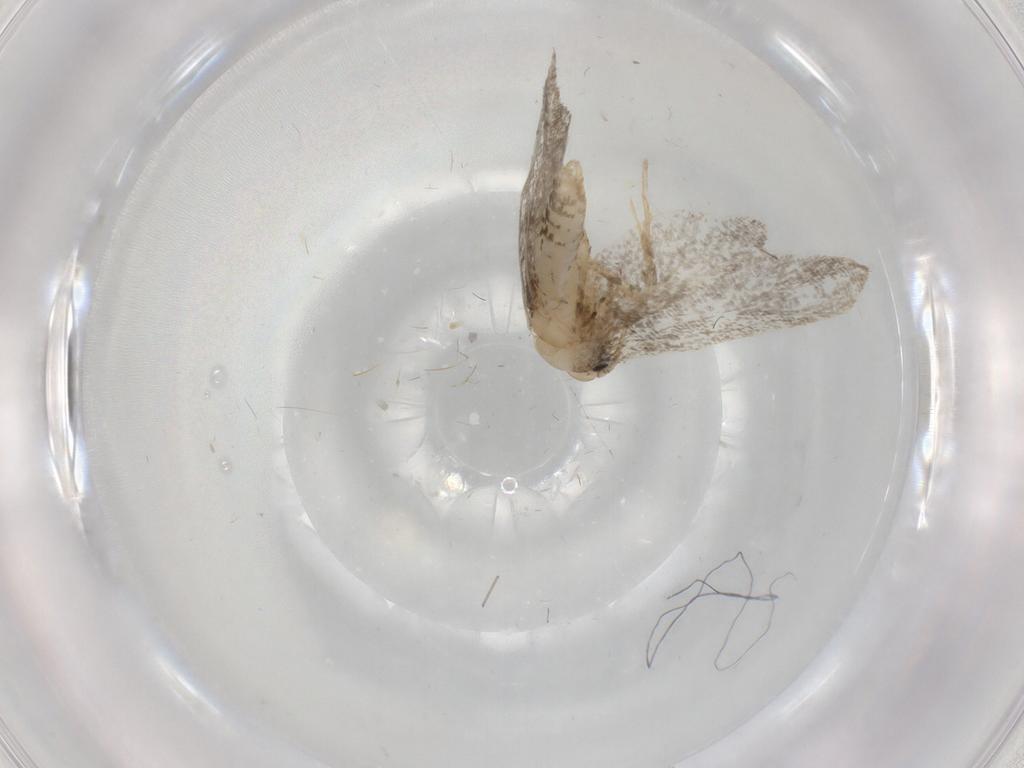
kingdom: Animalia
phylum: Arthropoda
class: Insecta
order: Lepidoptera
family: Psychidae
